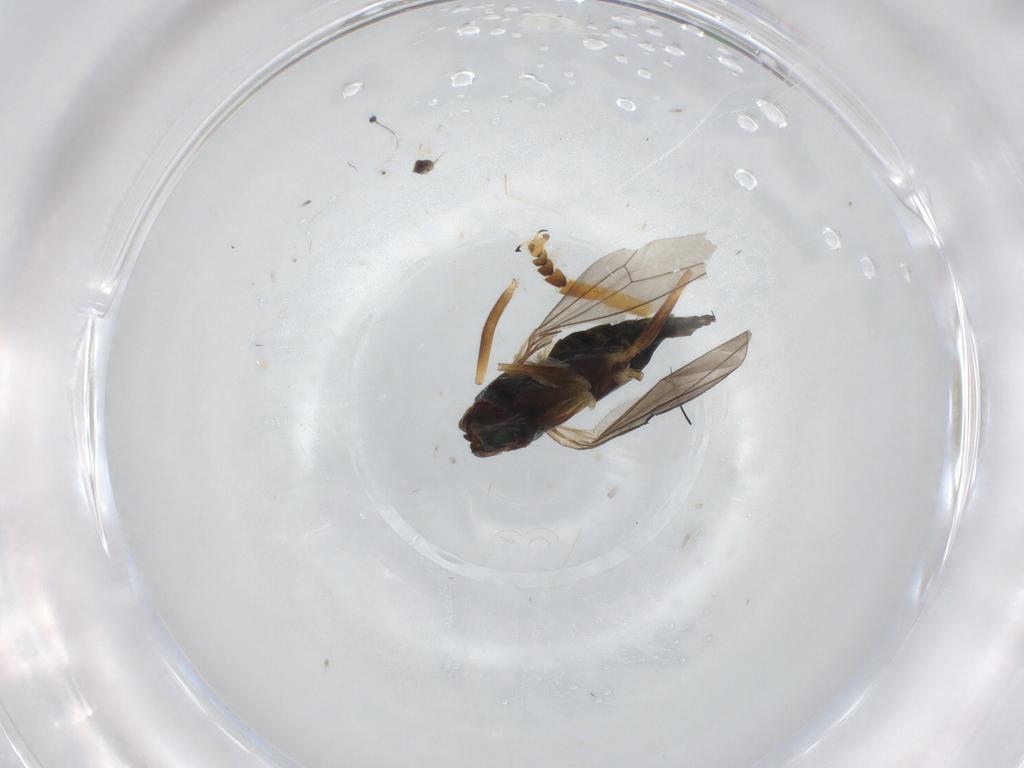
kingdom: Animalia
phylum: Arthropoda
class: Insecta
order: Diptera
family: Dolichopodidae
